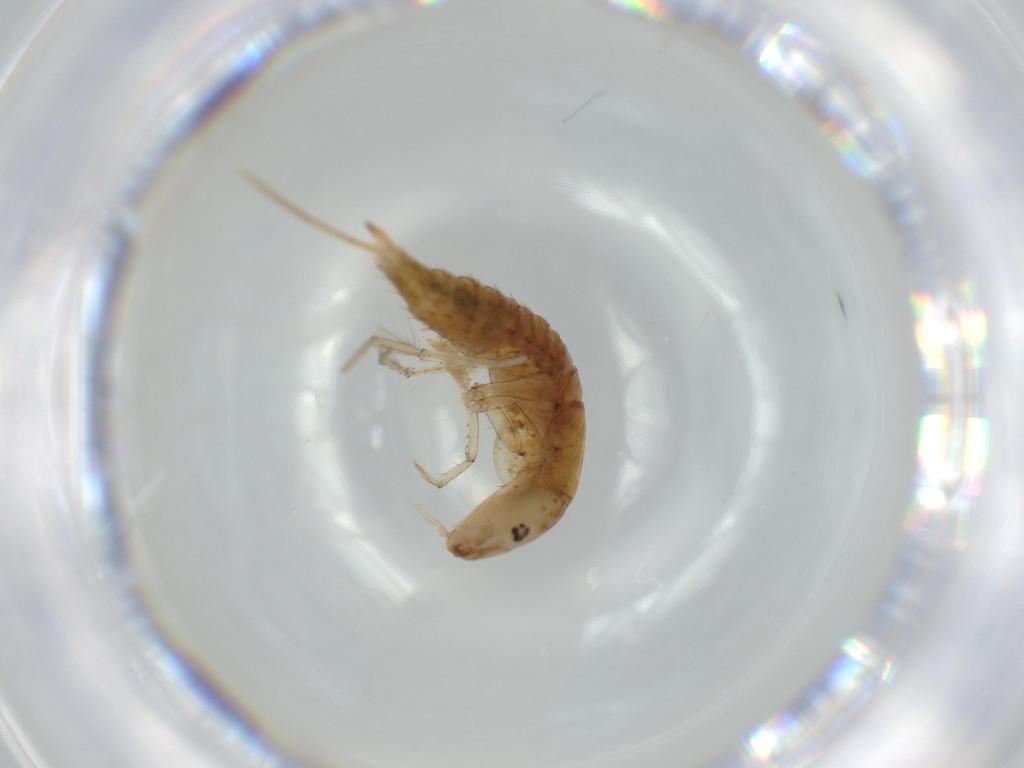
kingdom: Animalia
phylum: Arthropoda
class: Insecta
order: Coleoptera
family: Dytiscidae
